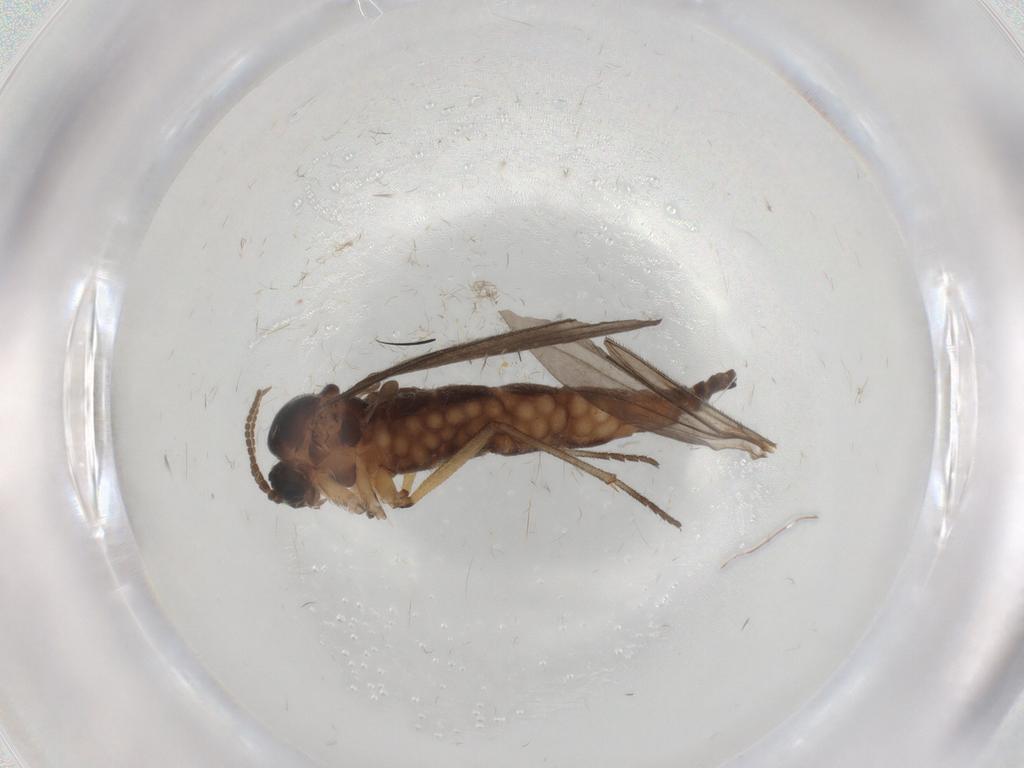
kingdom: Animalia
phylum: Arthropoda
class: Insecta
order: Diptera
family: Sciaridae
